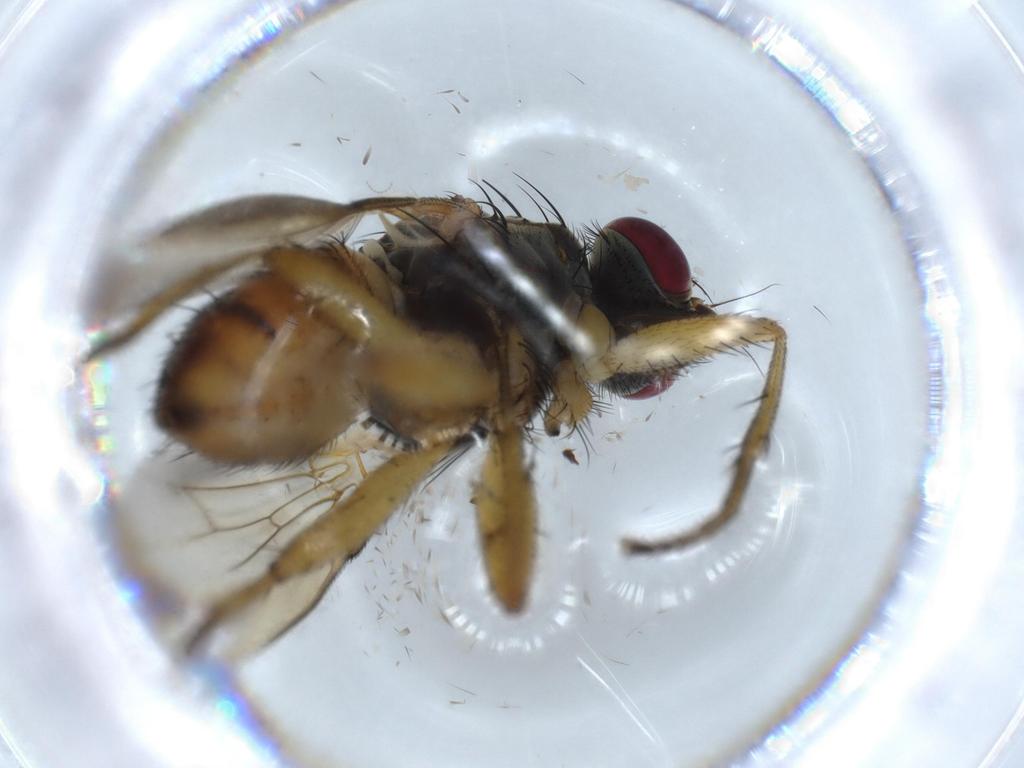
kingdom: Animalia
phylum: Arthropoda
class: Insecta
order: Diptera
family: Muscidae
